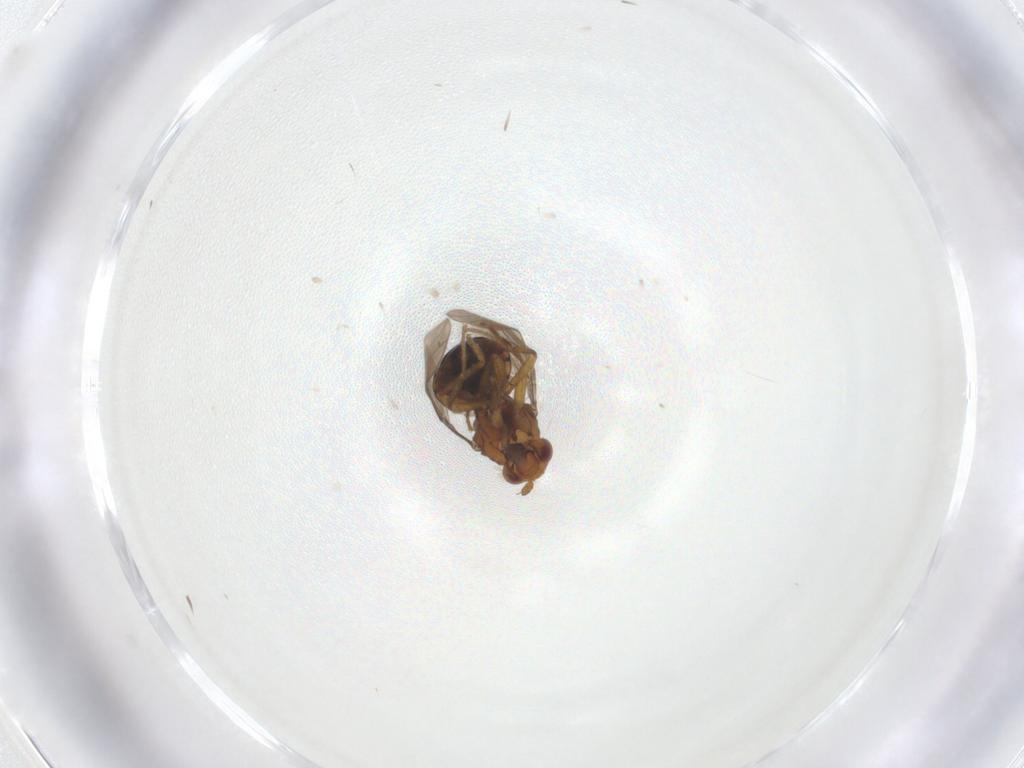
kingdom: Animalia
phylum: Arthropoda
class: Insecta
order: Diptera
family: Sphaeroceridae
